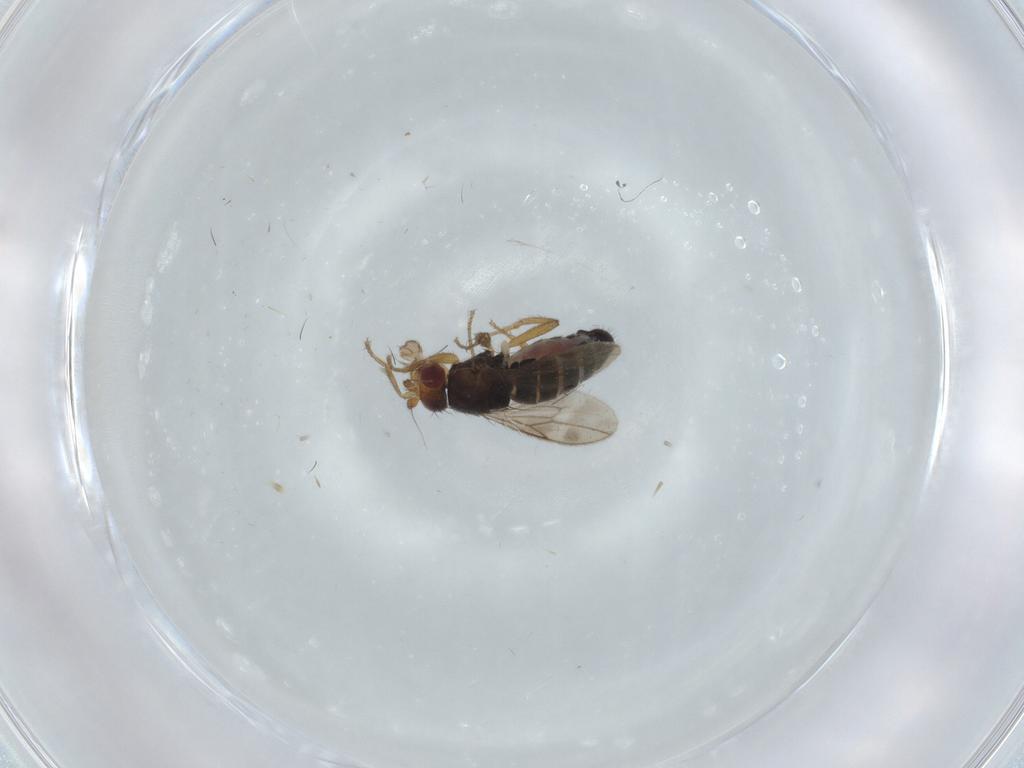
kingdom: Animalia
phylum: Arthropoda
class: Insecta
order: Diptera
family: Sphaeroceridae
